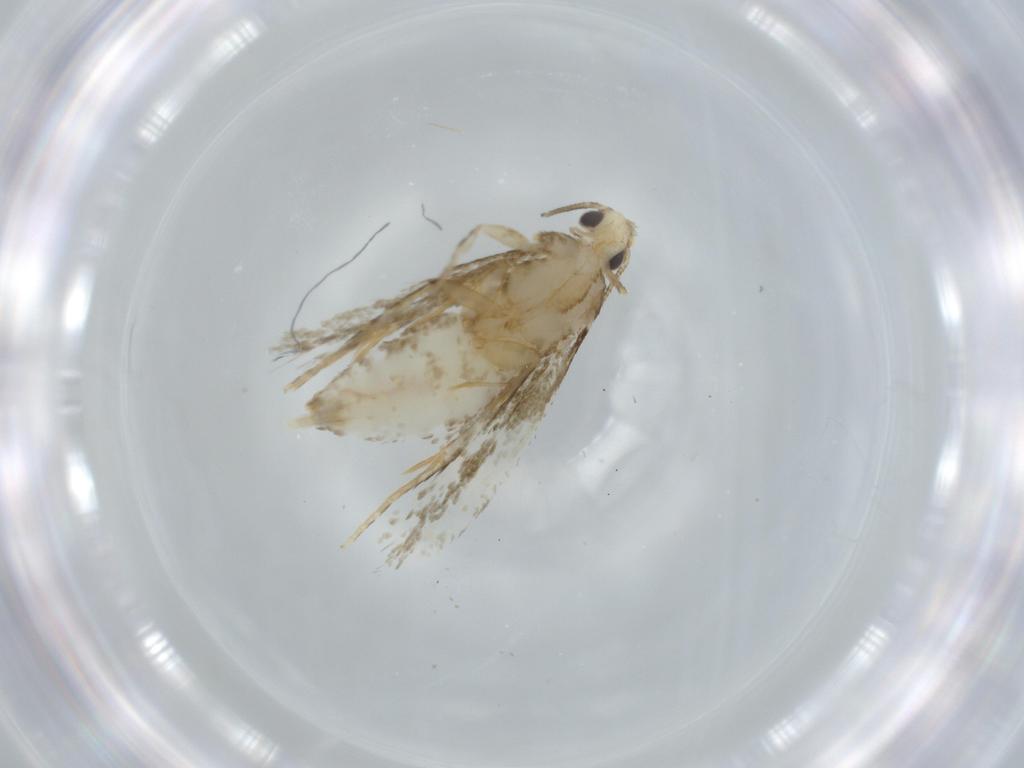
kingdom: Animalia
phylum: Arthropoda
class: Insecta
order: Lepidoptera
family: Tineidae
